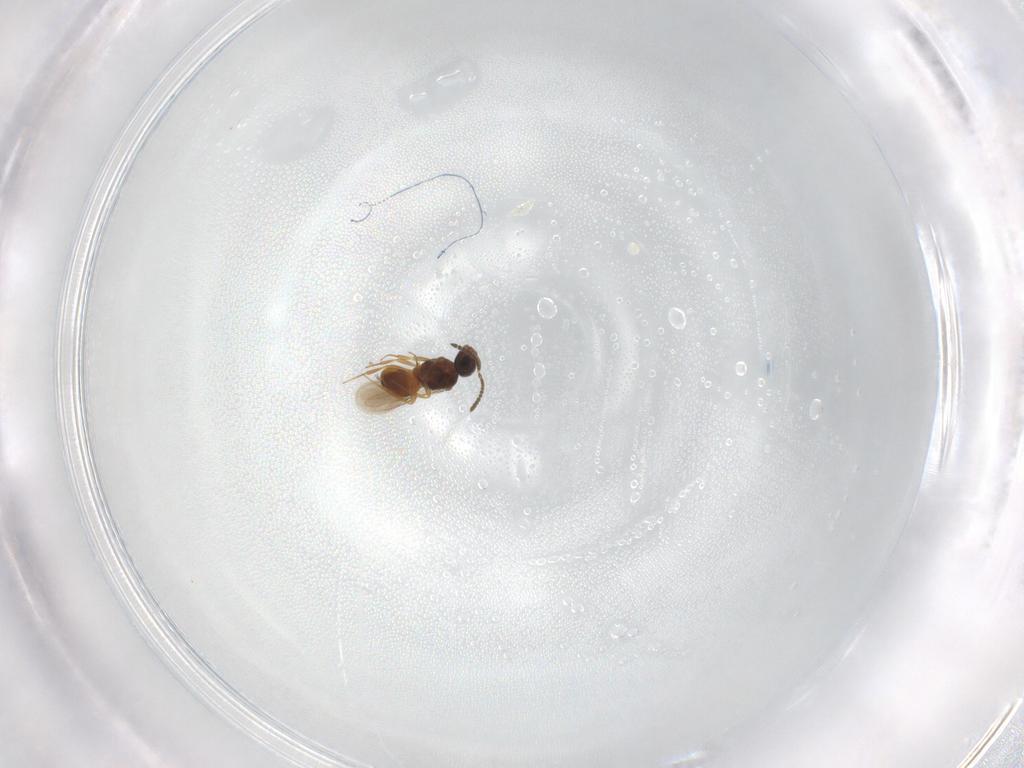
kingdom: Animalia
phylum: Arthropoda
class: Insecta
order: Hymenoptera
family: Scelionidae
